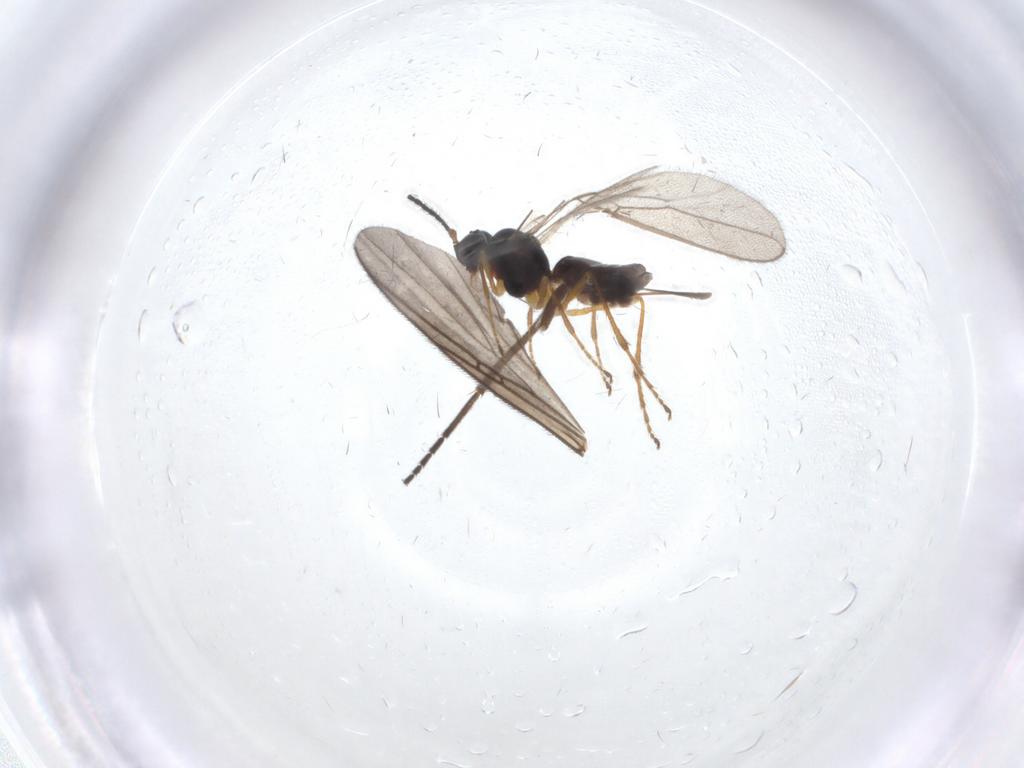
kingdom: Animalia
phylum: Arthropoda
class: Insecta
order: Hymenoptera
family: Braconidae
